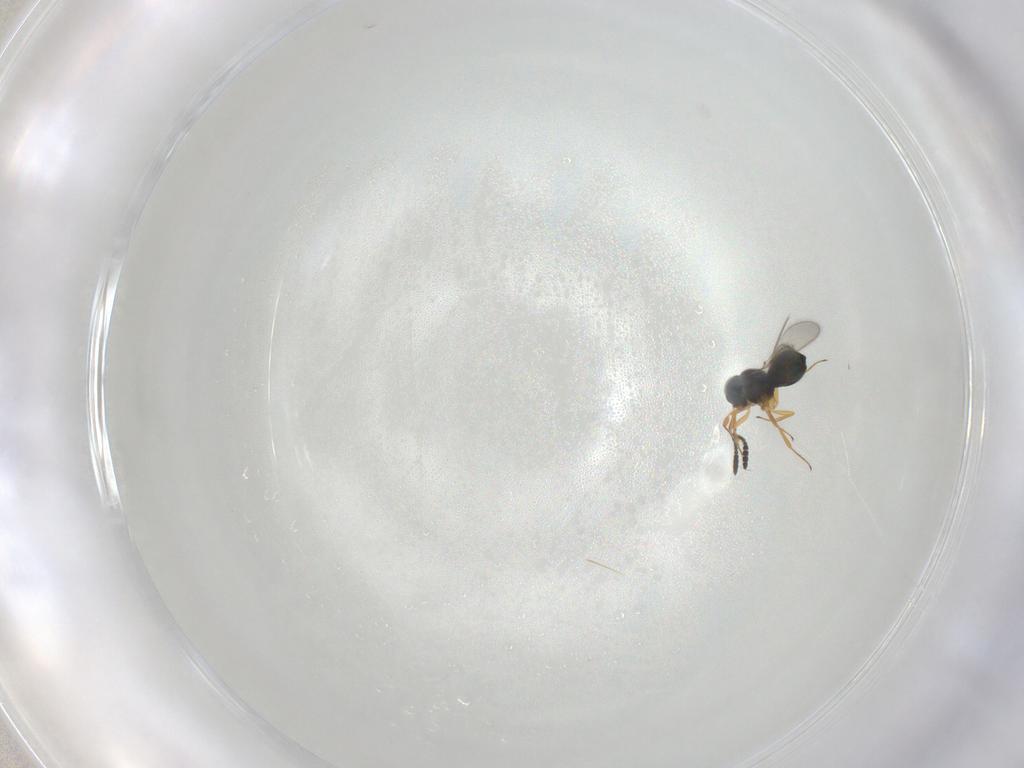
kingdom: Animalia
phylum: Arthropoda
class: Insecta
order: Hymenoptera
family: Scelionidae
